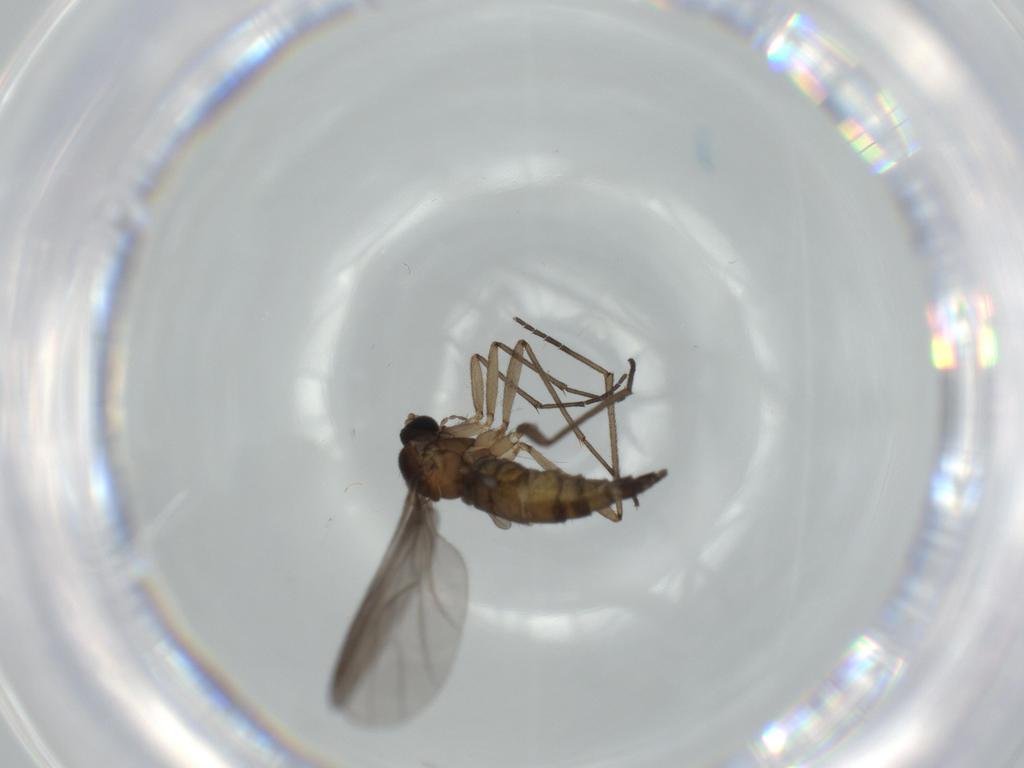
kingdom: Animalia
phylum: Arthropoda
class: Insecta
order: Diptera
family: Sciaridae
